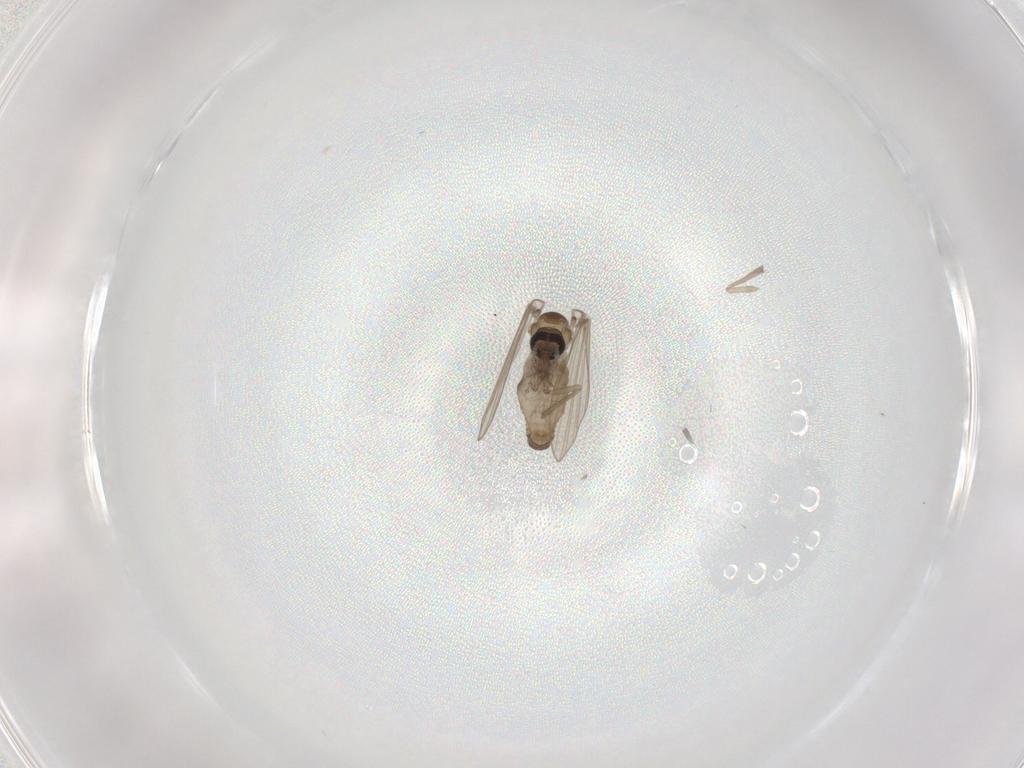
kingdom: Animalia
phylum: Arthropoda
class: Insecta
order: Diptera
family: Psychodidae
